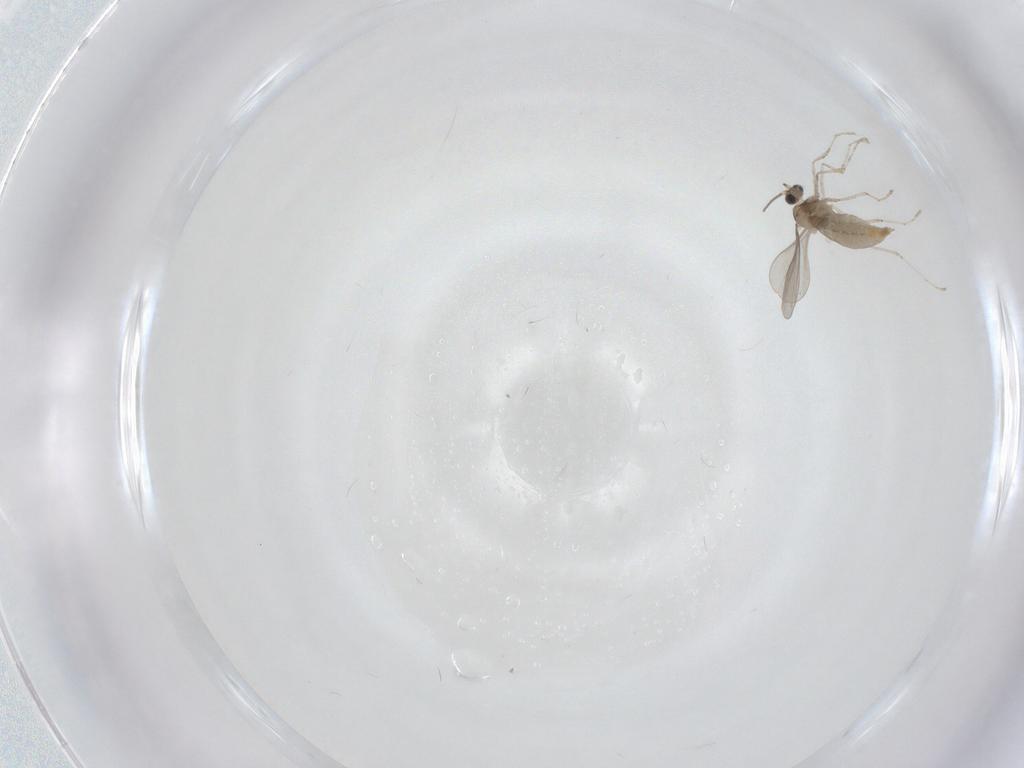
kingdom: Animalia
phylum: Arthropoda
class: Insecta
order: Diptera
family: Cecidomyiidae
